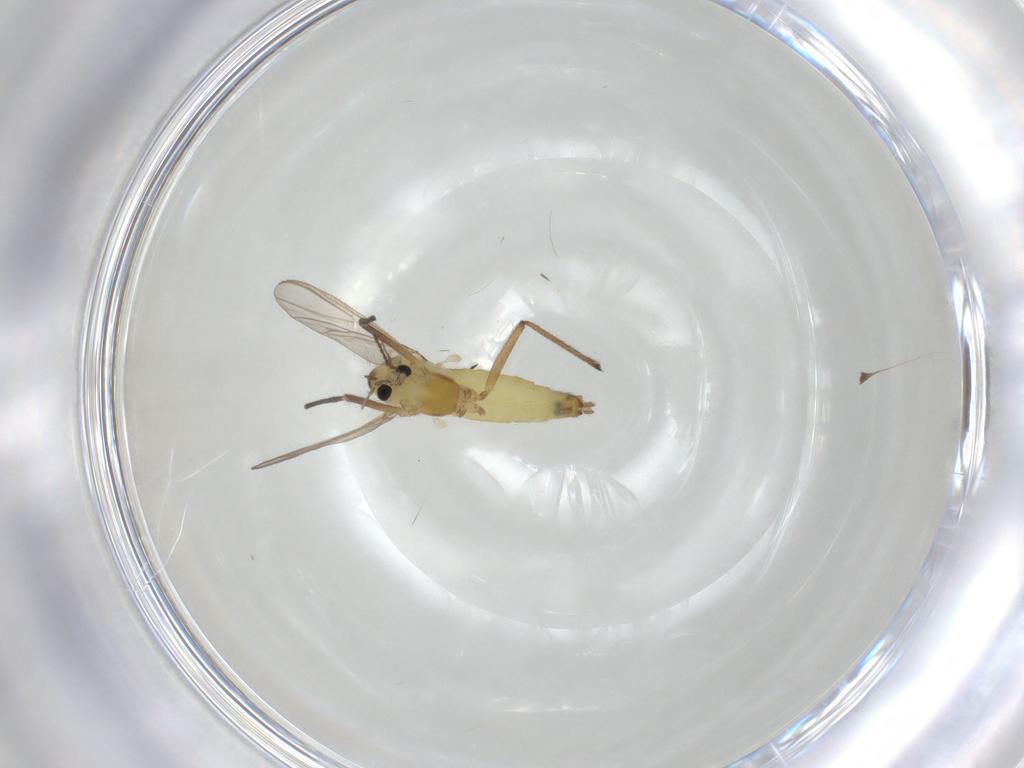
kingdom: Animalia
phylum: Arthropoda
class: Insecta
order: Diptera
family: Chironomidae
